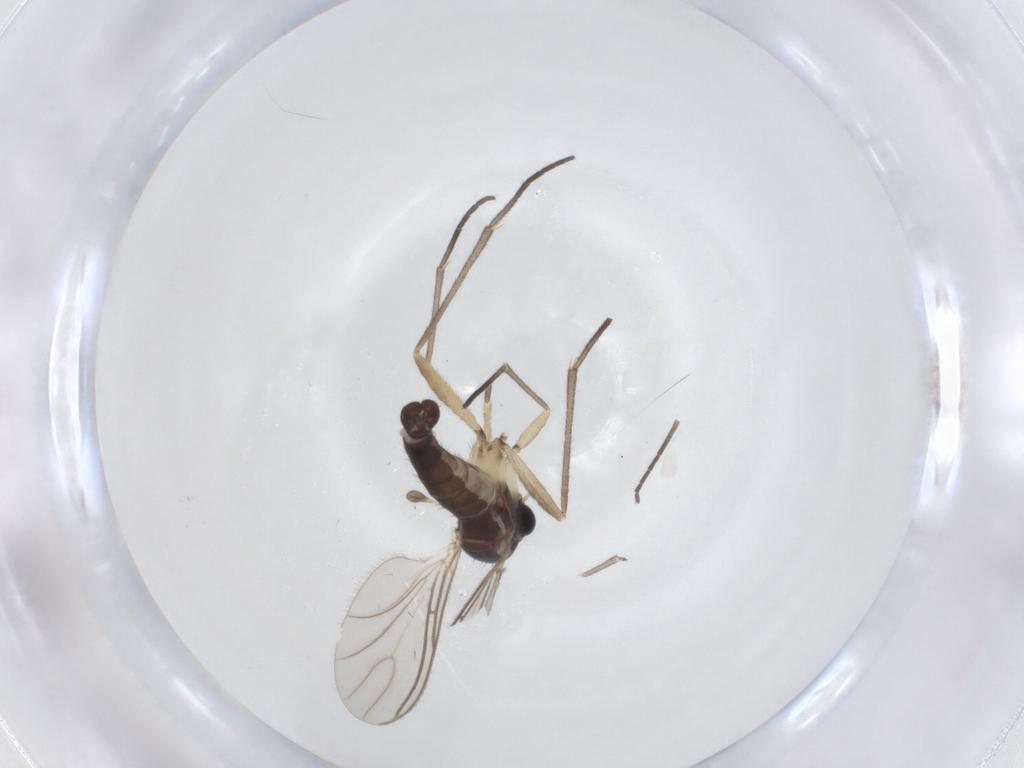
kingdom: Animalia
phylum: Arthropoda
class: Insecta
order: Diptera
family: Sciaridae
